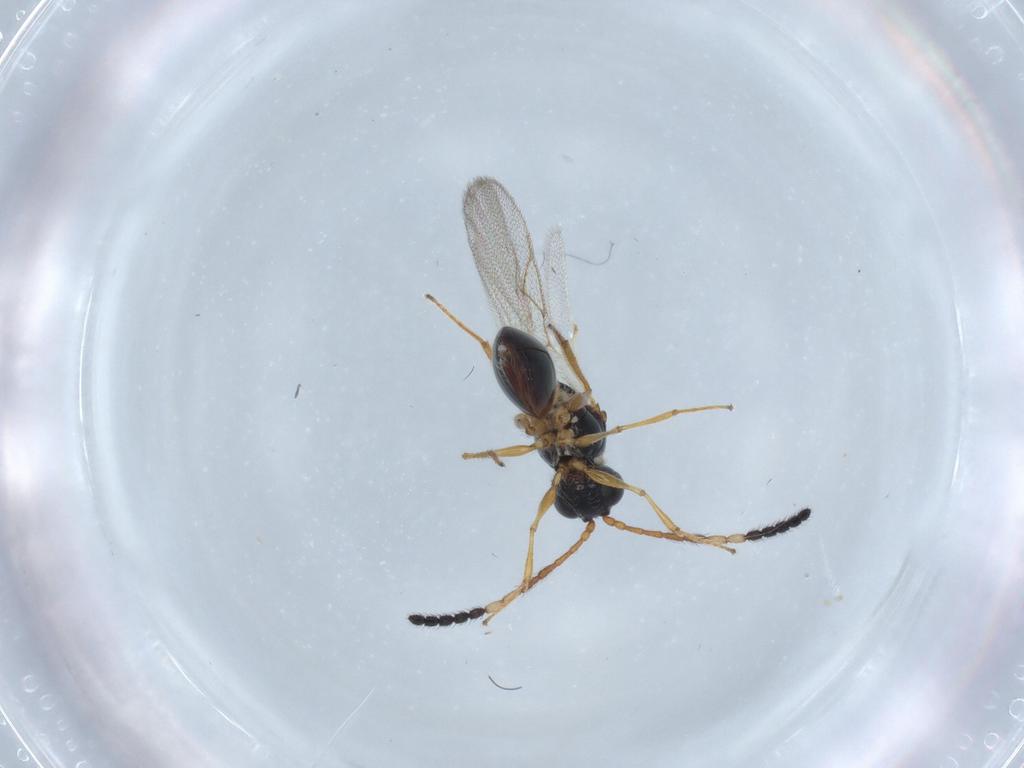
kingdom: Animalia
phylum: Arthropoda
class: Insecta
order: Hymenoptera
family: Figitidae
